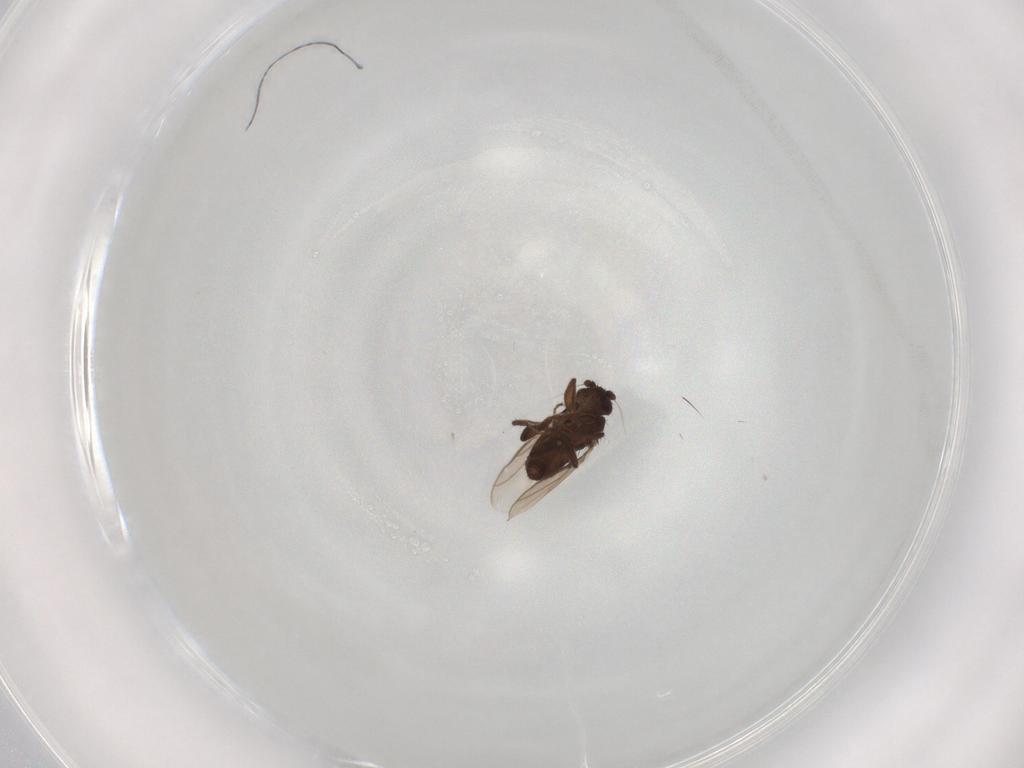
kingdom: Animalia
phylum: Arthropoda
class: Insecta
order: Diptera
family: Sphaeroceridae
